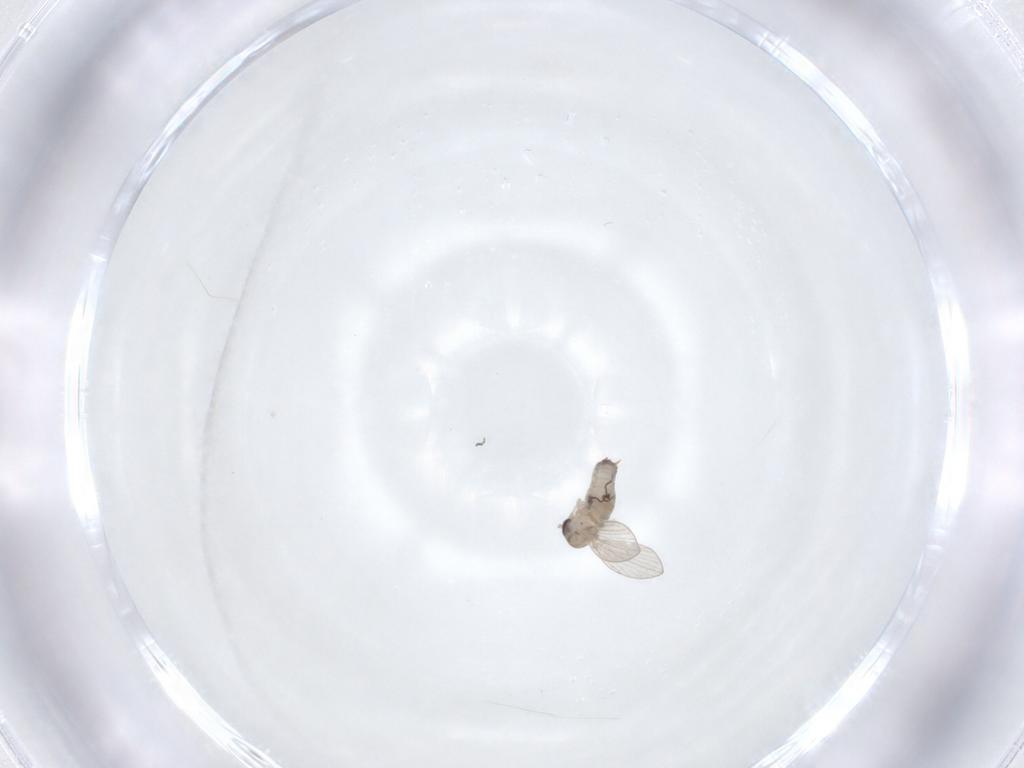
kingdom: Animalia
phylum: Arthropoda
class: Insecta
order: Diptera
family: Psychodidae
